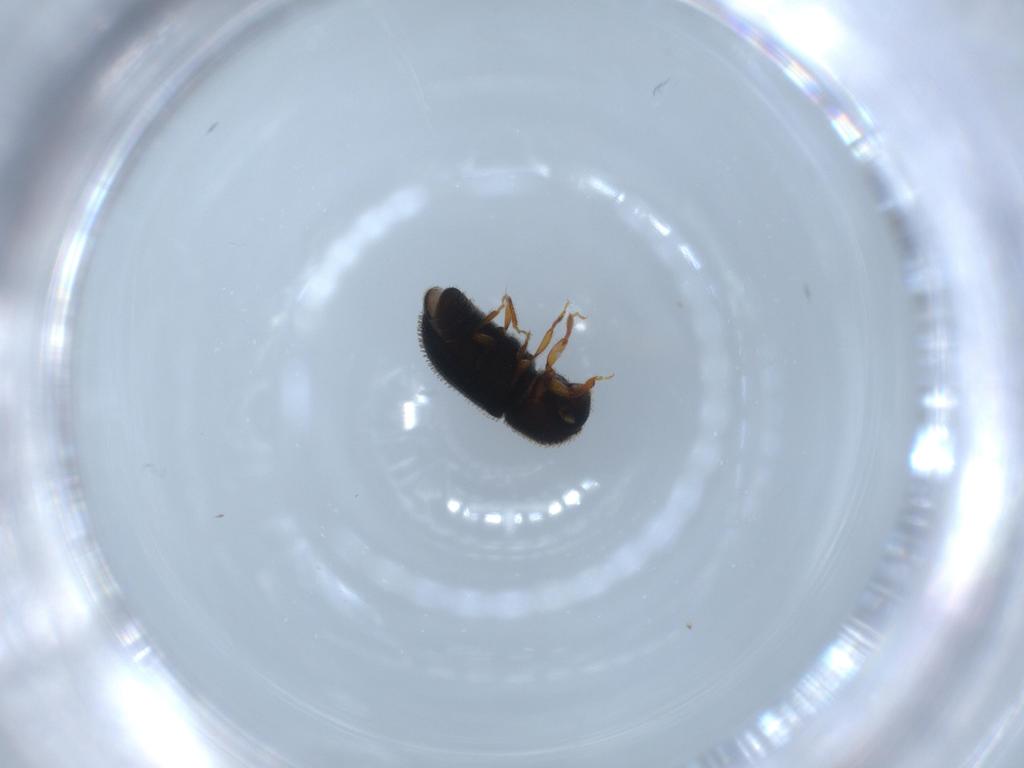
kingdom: Animalia
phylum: Arthropoda
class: Insecta
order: Coleoptera
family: Curculionidae
